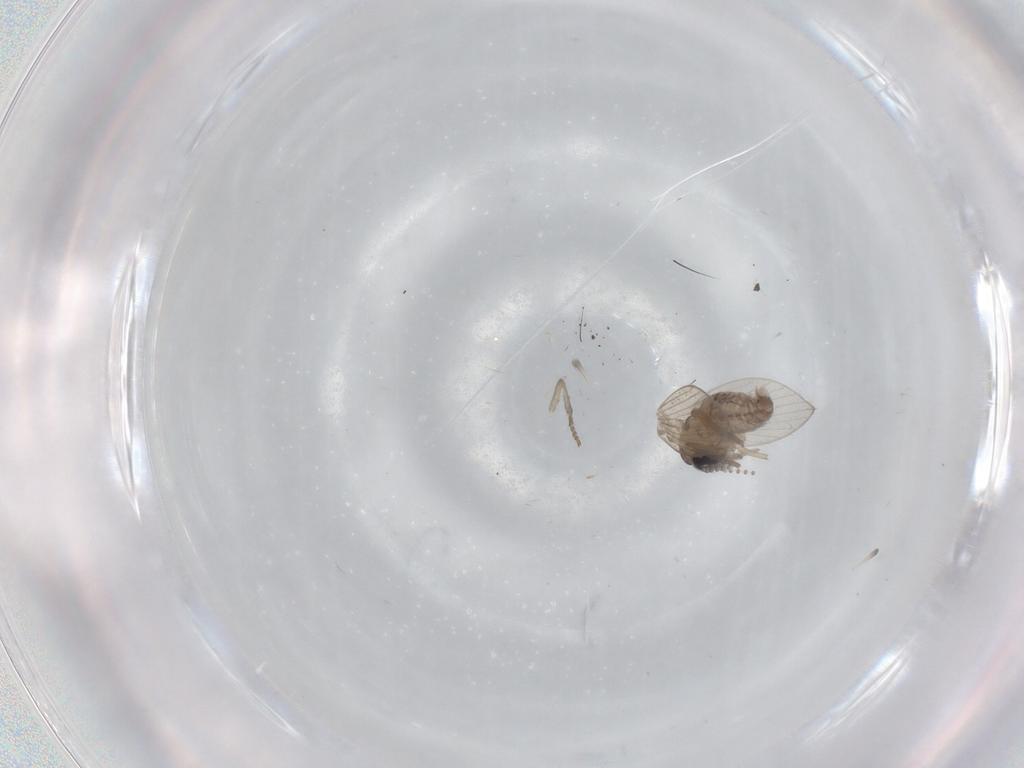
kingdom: Animalia
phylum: Arthropoda
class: Insecta
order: Diptera
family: Psychodidae
